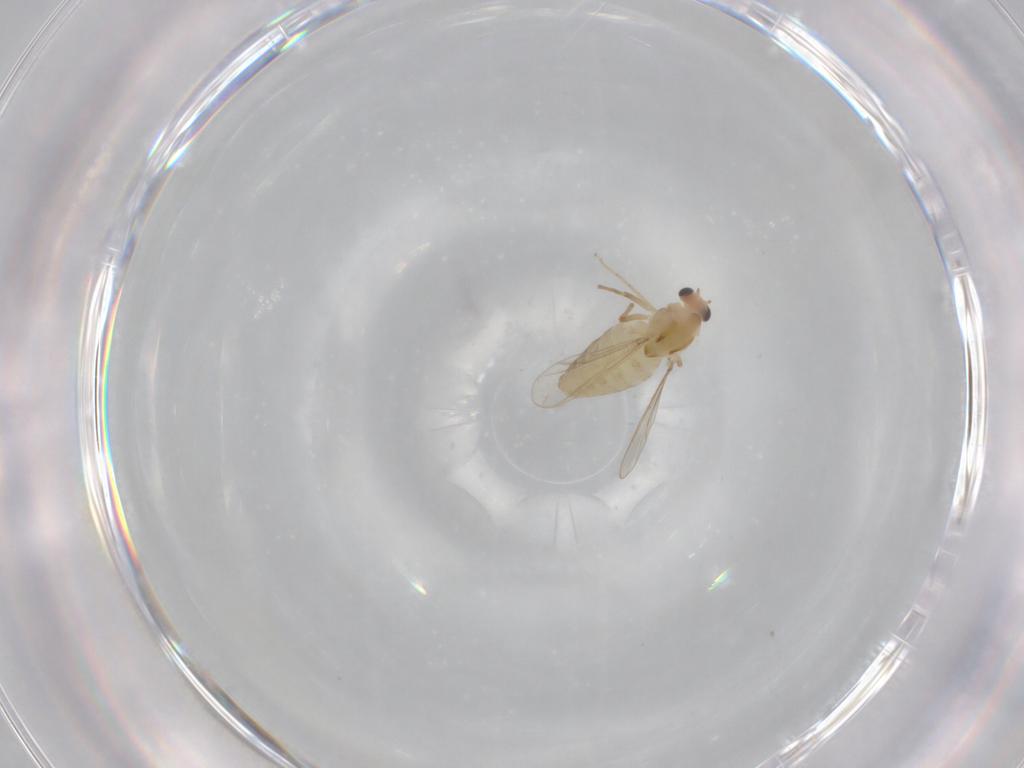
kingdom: Animalia
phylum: Arthropoda
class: Insecta
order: Diptera
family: Chironomidae
